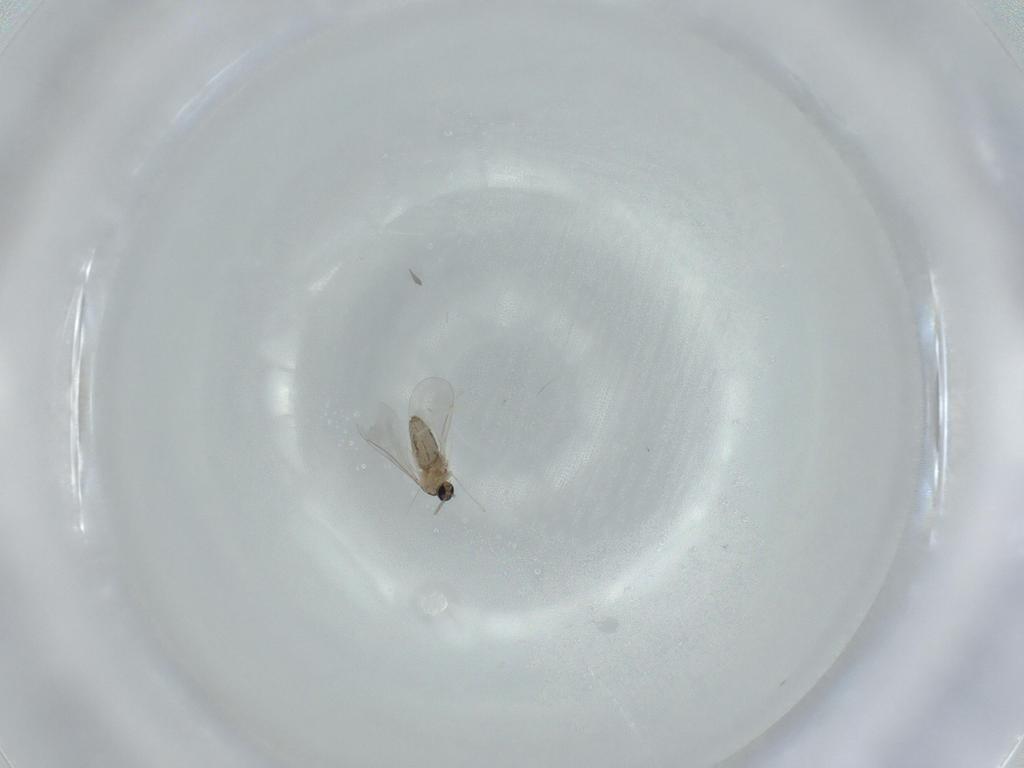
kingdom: Animalia
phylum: Arthropoda
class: Insecta
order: Diptera
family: Cecidomyiidae
